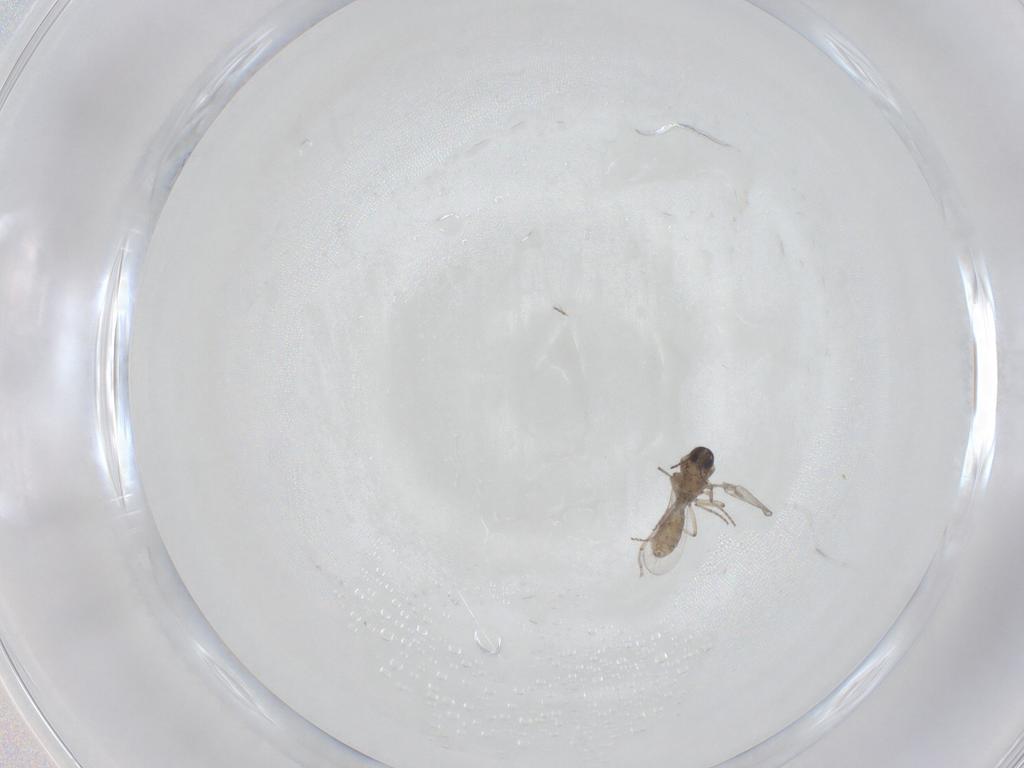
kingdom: Animalia
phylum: Arthropoda
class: Insecta
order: Diptera
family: Ceratopogonidae
